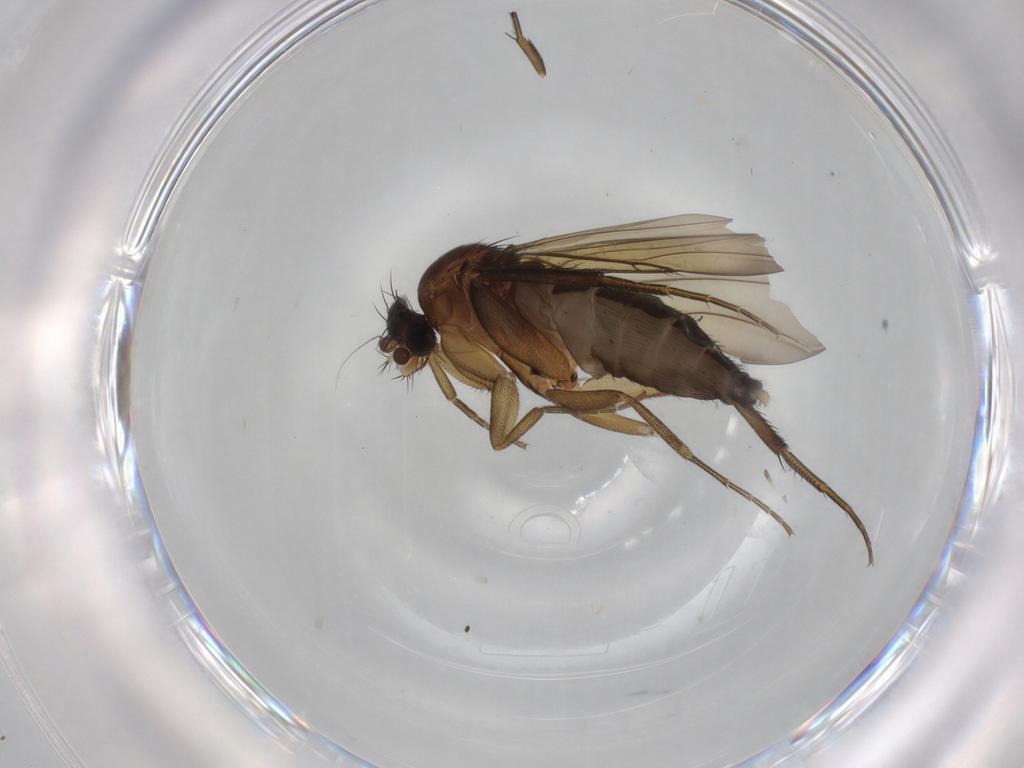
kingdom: Animalia
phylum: Arthropoda
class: Insecta
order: Diptera
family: Phoridae
